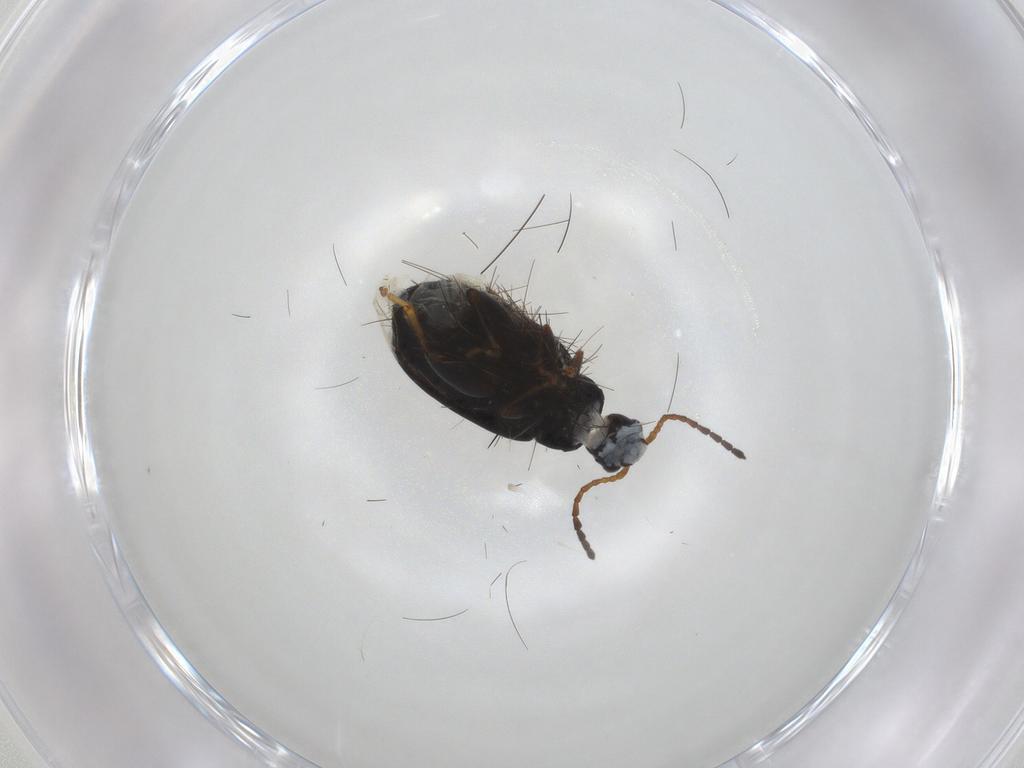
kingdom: Animalia
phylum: Arthropoda
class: Insecta
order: Coleoptera
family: Chrysomelidae
